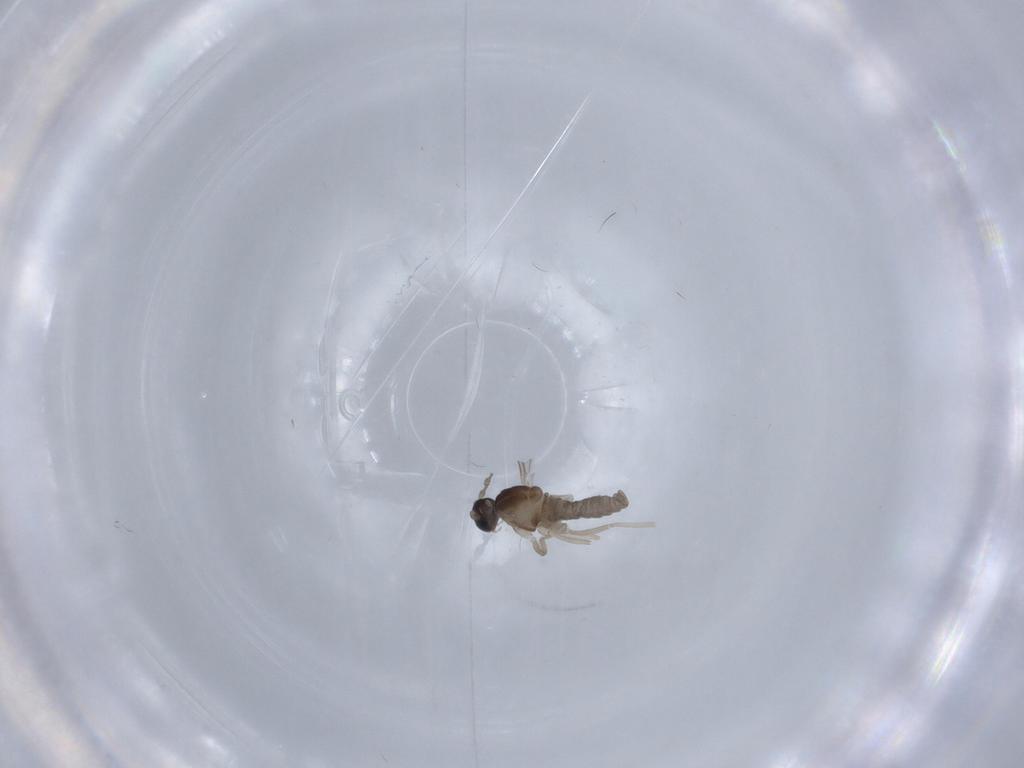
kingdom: Animalia
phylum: Arthropoda
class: Insecta
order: Diptera
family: Cecidomyiidae
